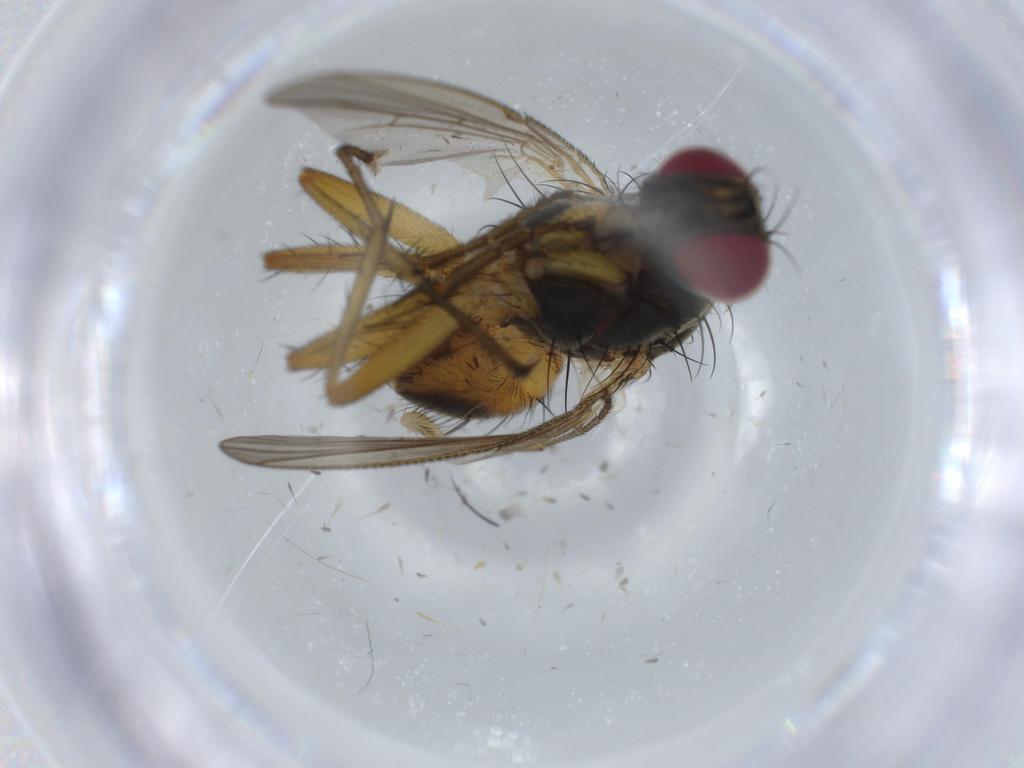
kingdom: Animalia
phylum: Arthropoda
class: Insecta
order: Diptera
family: Muscidae
